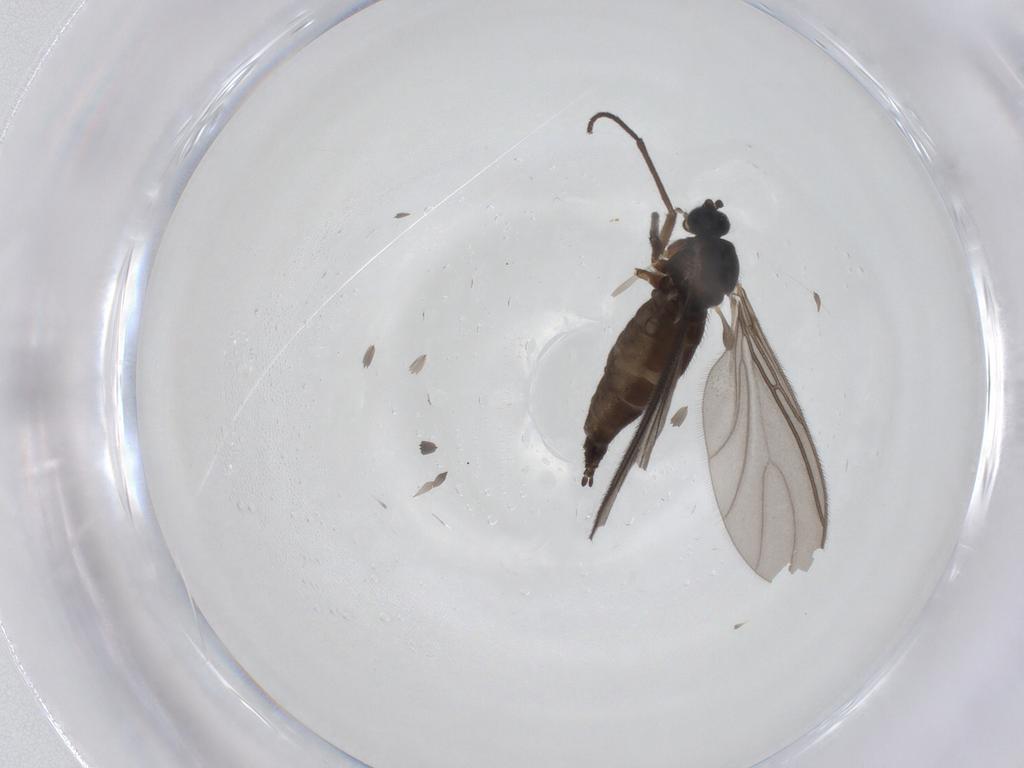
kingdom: Animalia
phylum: Arthropoda
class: Insecta
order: Diptera
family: Sciaridae
